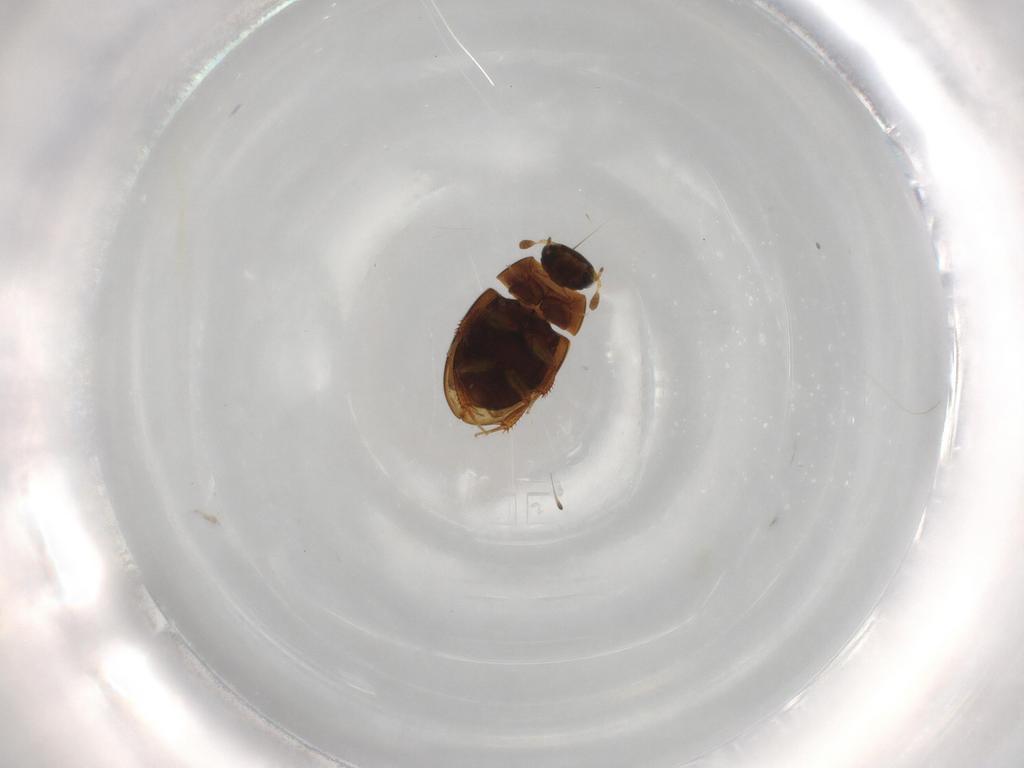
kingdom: Animalia
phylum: Arthropoda
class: Insecta
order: Coleoptera
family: Hydrophilidae
